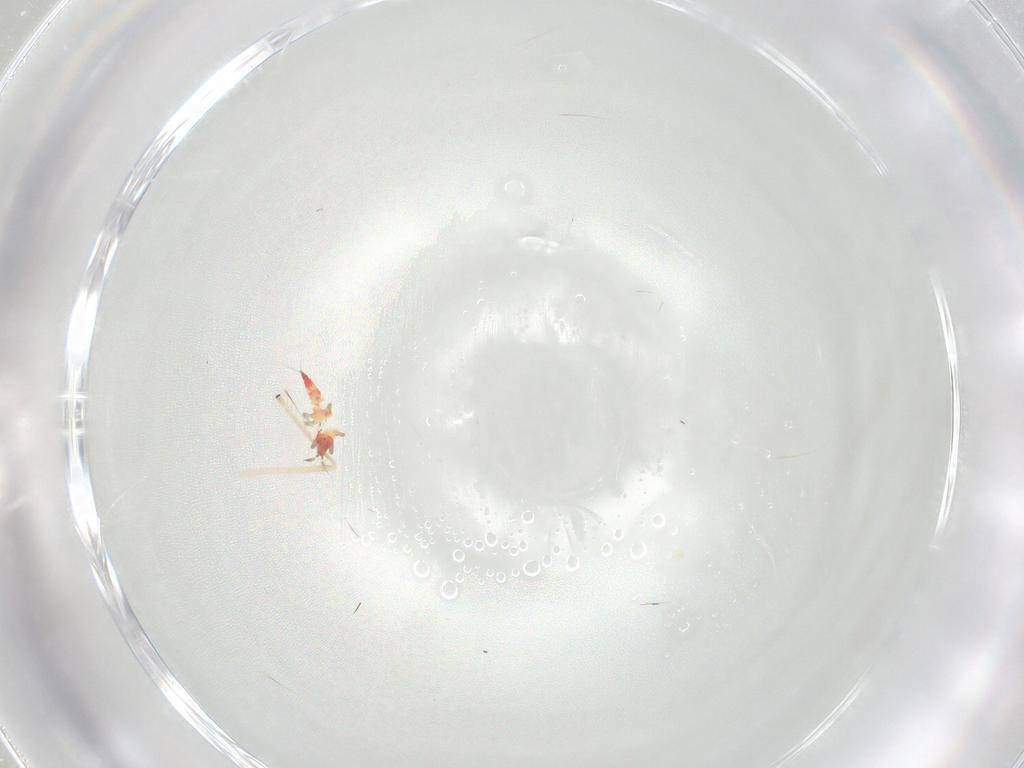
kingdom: Animalia
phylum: Arthropoda
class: Insecta
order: Thysanoptera
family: Phlaeothripidae
